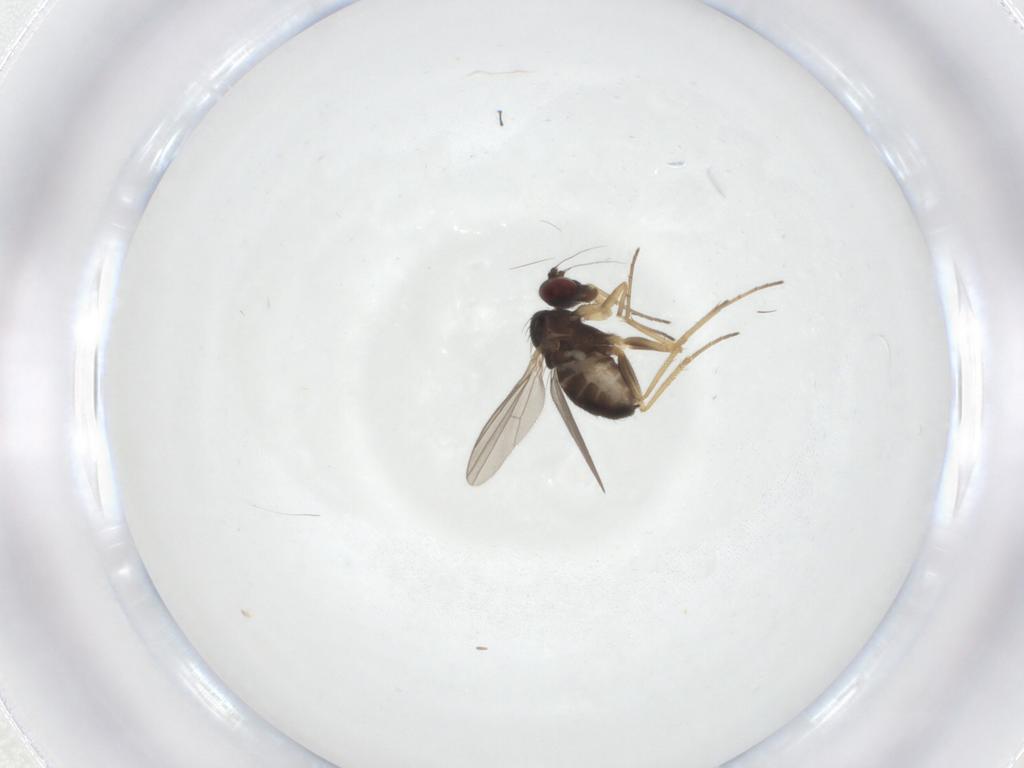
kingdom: Animalia
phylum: Arthropoda
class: Insecta
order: Diptera
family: Dolichopodidae
